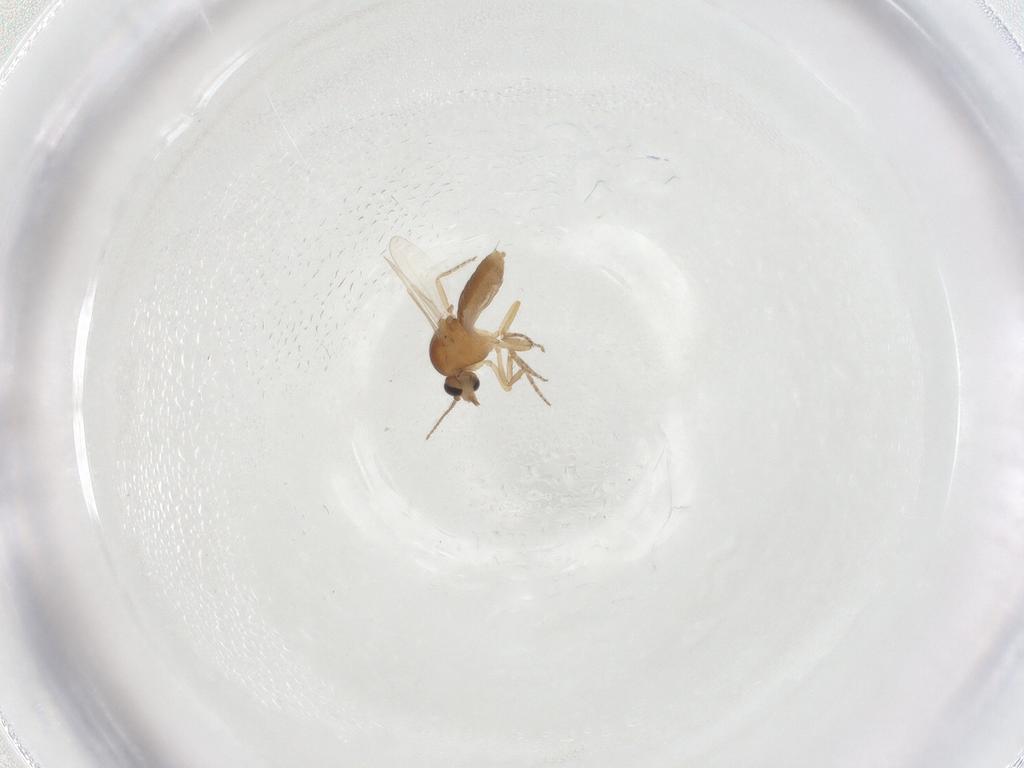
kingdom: Animalia
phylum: Arthropoda
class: Insecta
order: Diptera
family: Ceratopogonidae
